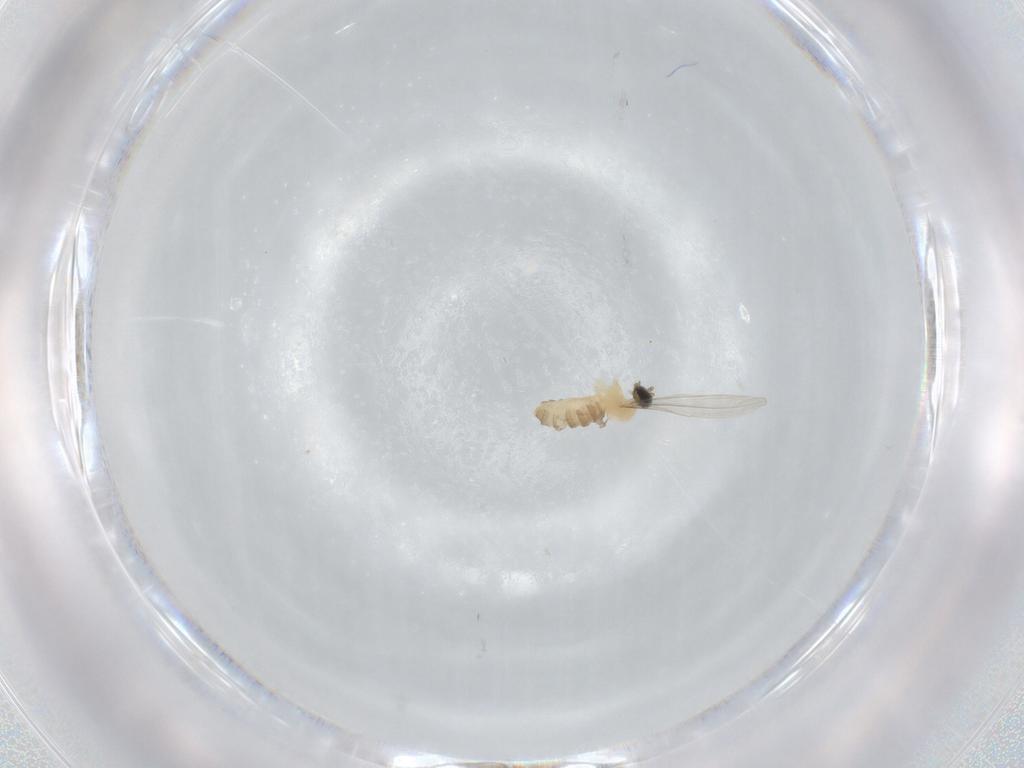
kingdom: Animalia
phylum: Arthropoda
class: Insecta
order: Diptera
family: Cecidomyiidae
